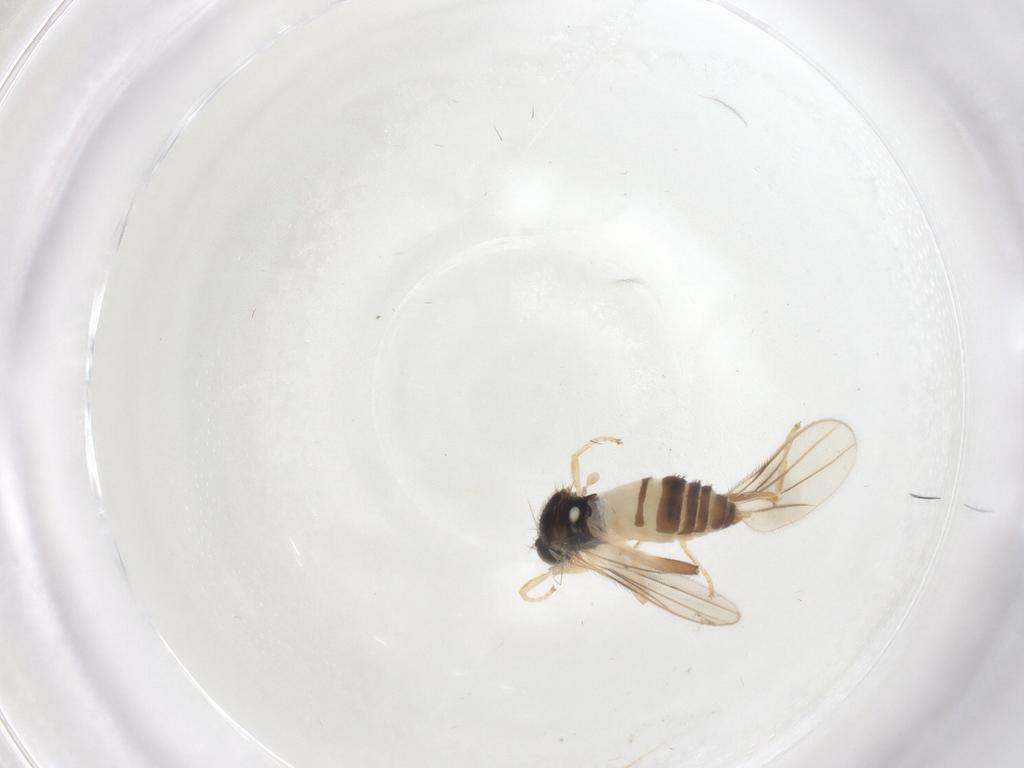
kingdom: Animalia
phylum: Arthropoda
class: Insecta
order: Diptera
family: Hybotidae
